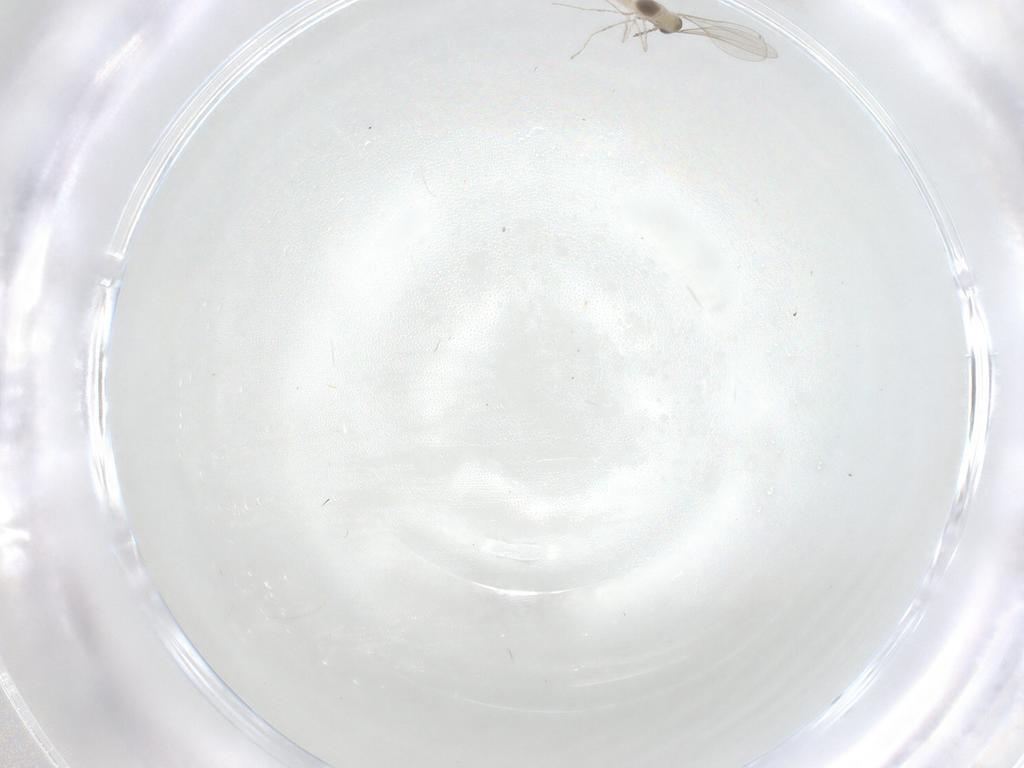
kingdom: Animalia
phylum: Arthropoda
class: Insecta
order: Diptera
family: Cecidomyiidae
